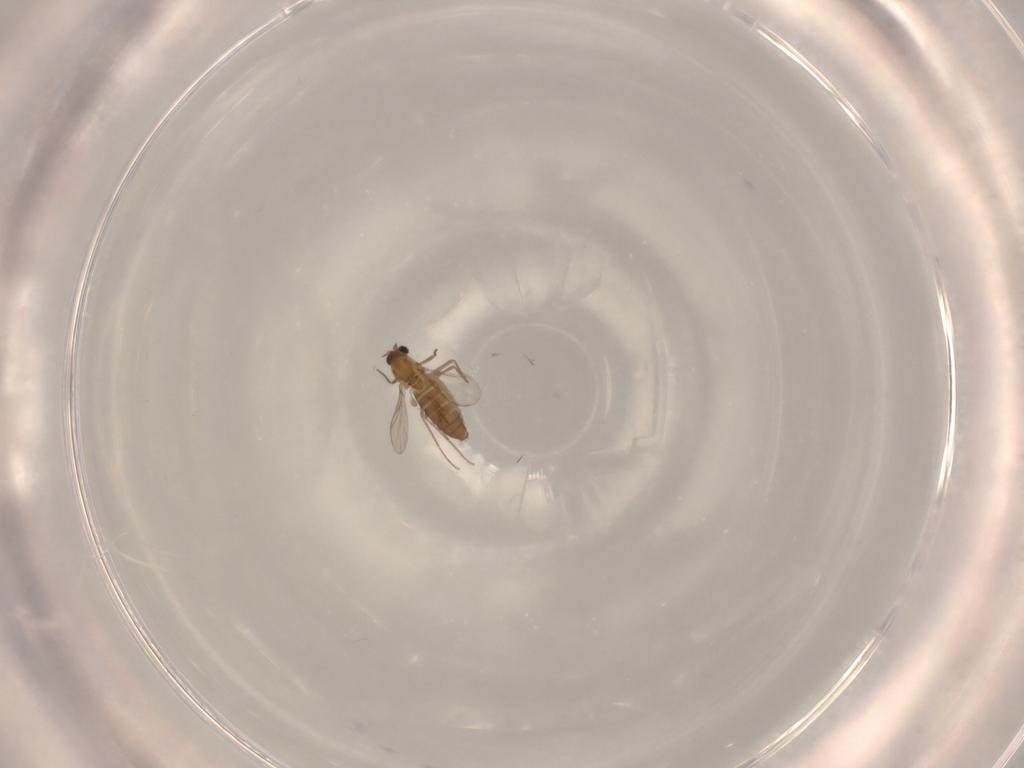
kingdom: Animalia
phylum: Arthropoda
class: Insecta
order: Diptera
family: Chironomidae
